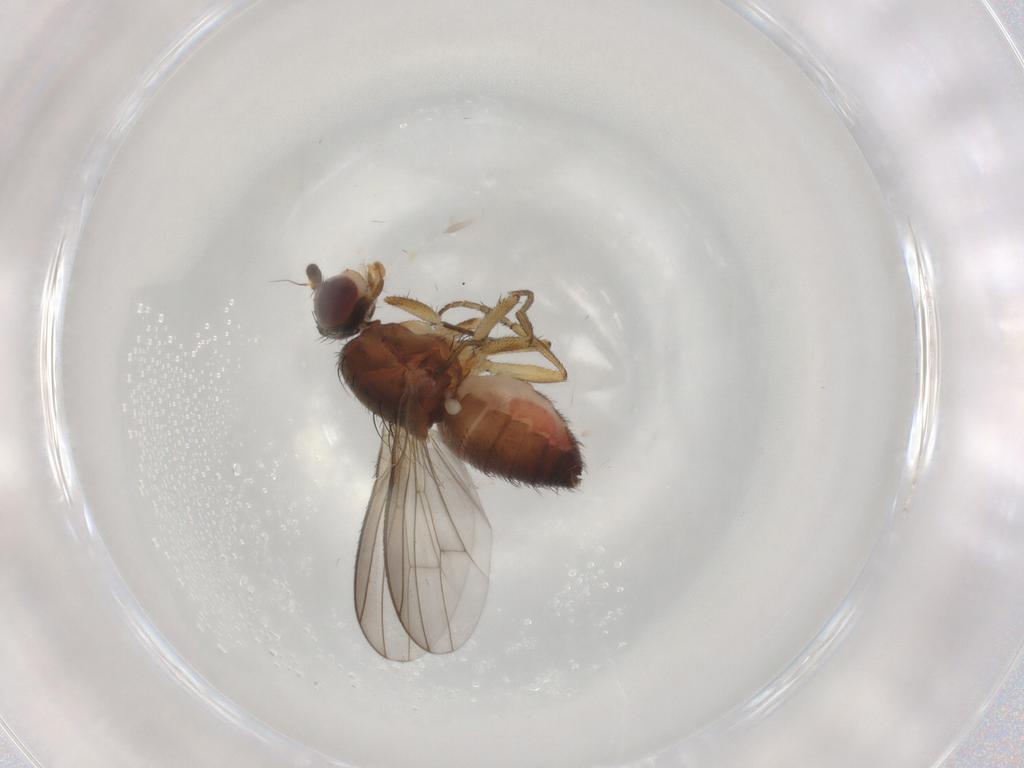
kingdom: Animalia
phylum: Arthropoda
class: Insecta
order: Diptera
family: Heleomyzidae
